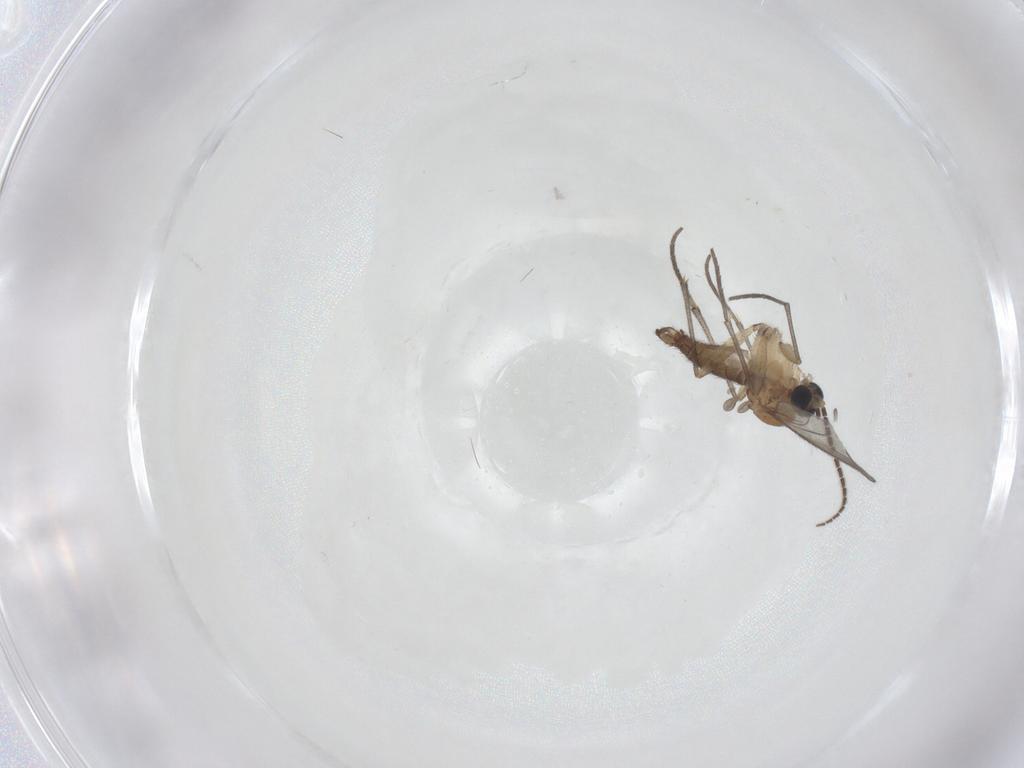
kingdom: Animalia
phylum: Arthropoda
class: Insecta
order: Diptera
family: Sciaridae
